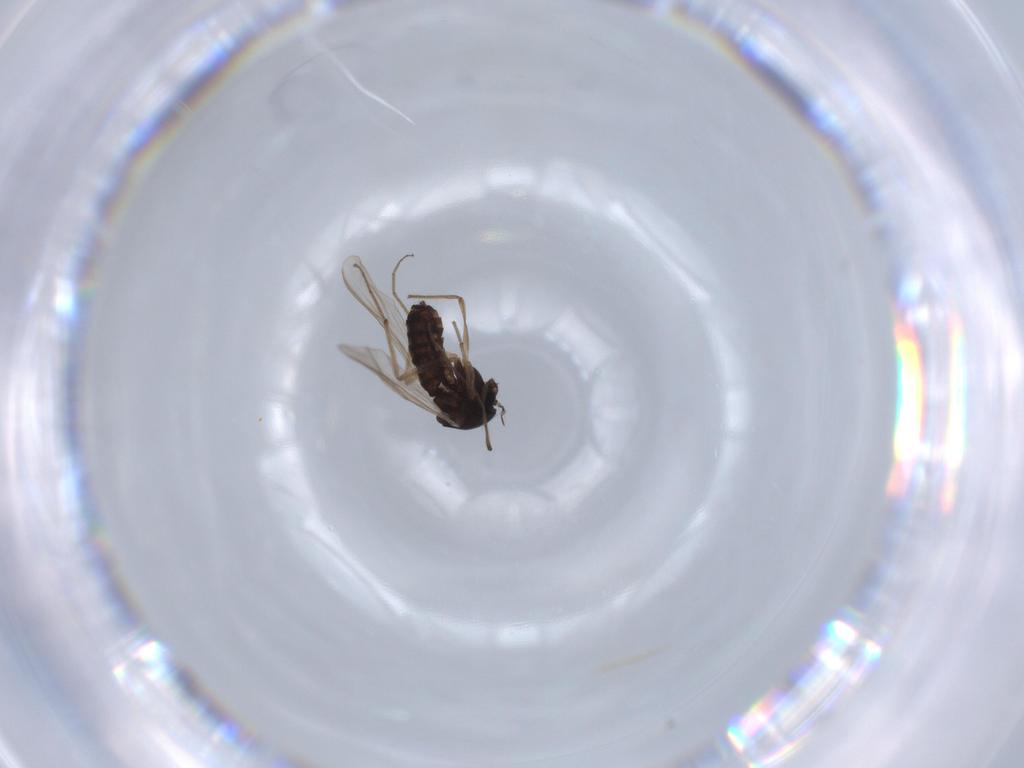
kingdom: Animalia
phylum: Arthropoda
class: Insecta
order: Diptera
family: Chironomidae
